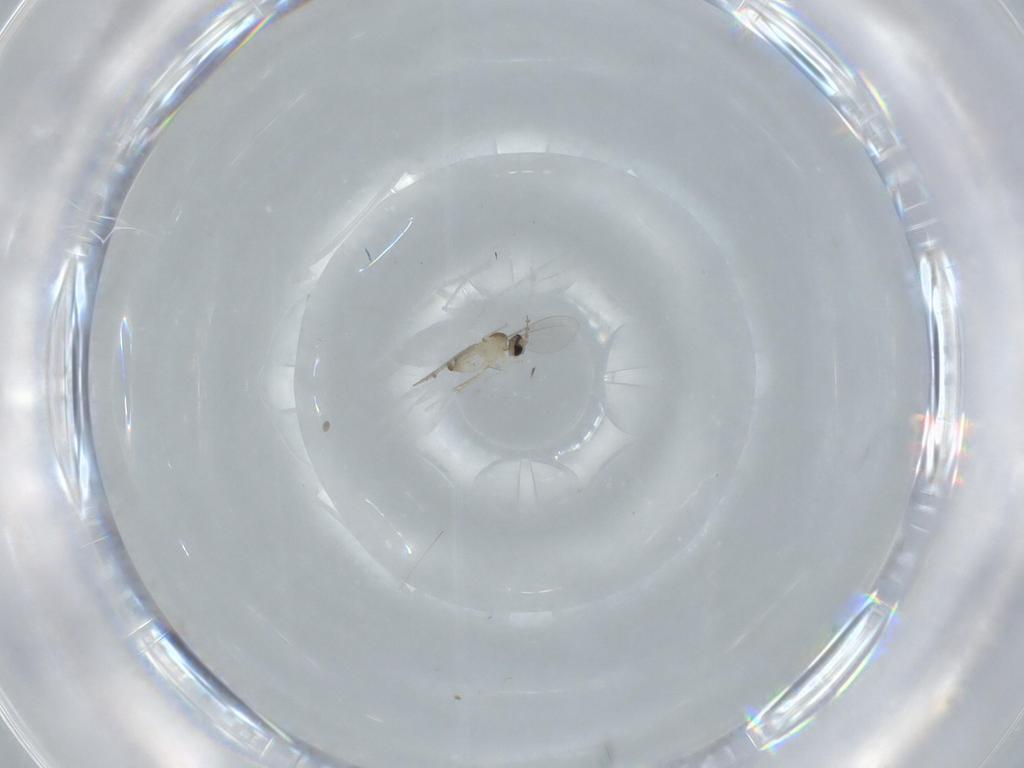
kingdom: Animalia
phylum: Arthropoda
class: Insecta
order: Diptera
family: Cecidomyiidae
